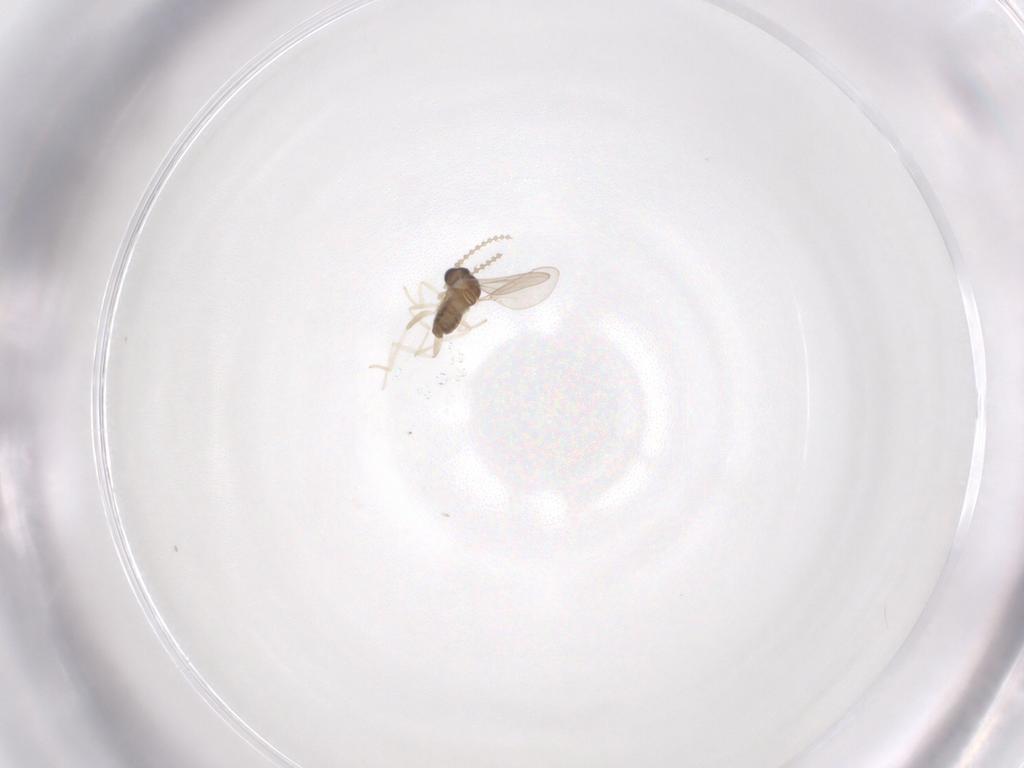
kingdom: Animalia
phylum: Arthropoda
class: Insecta
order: Diptera
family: Cecidomyiidae
